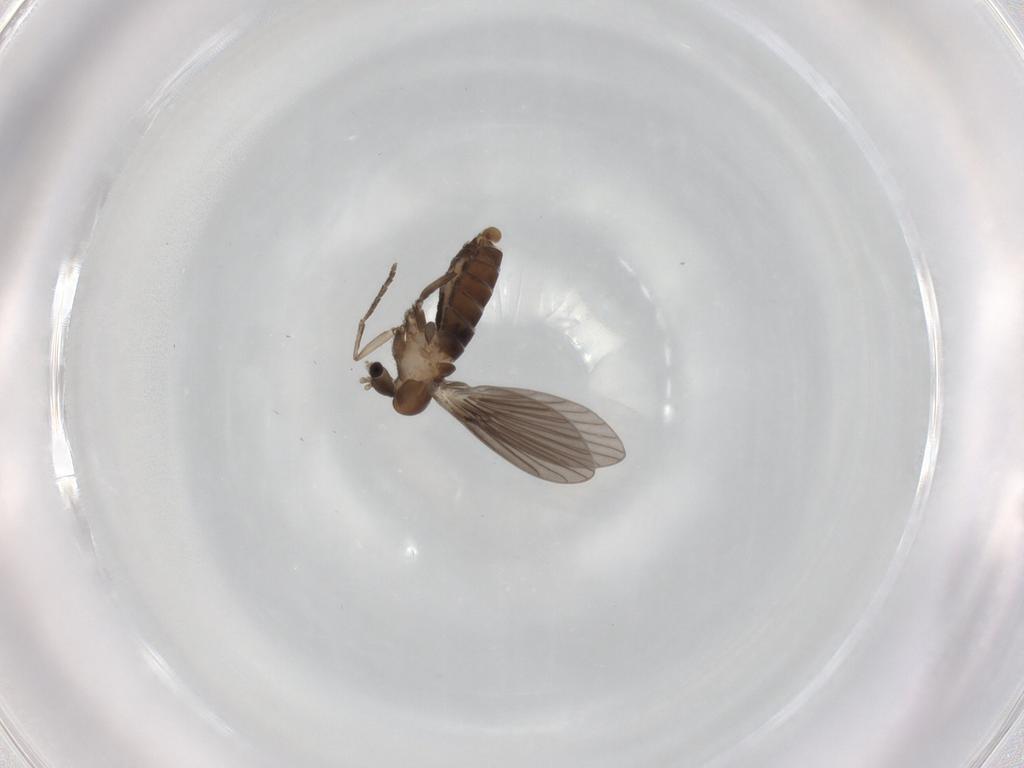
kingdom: Animalia
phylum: Arthropoda
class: Insecta
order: Diptera
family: Psychodidae
